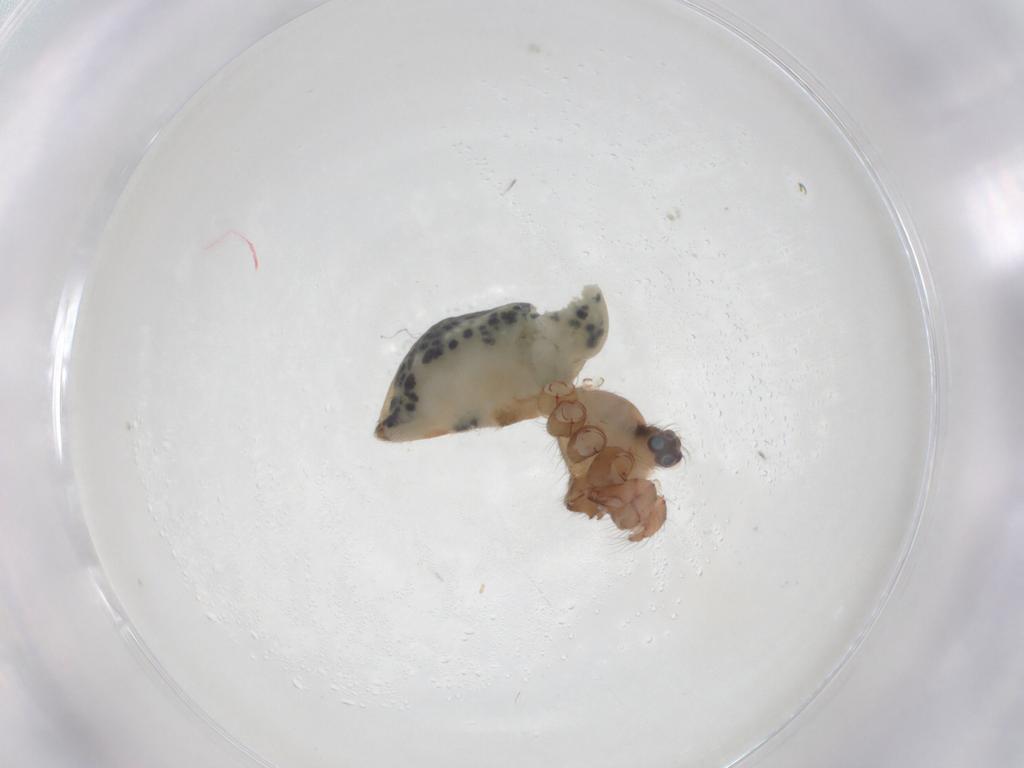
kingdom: Animalia
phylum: Arthropoda
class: Arachnida
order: Araneae
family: Pholcidae
